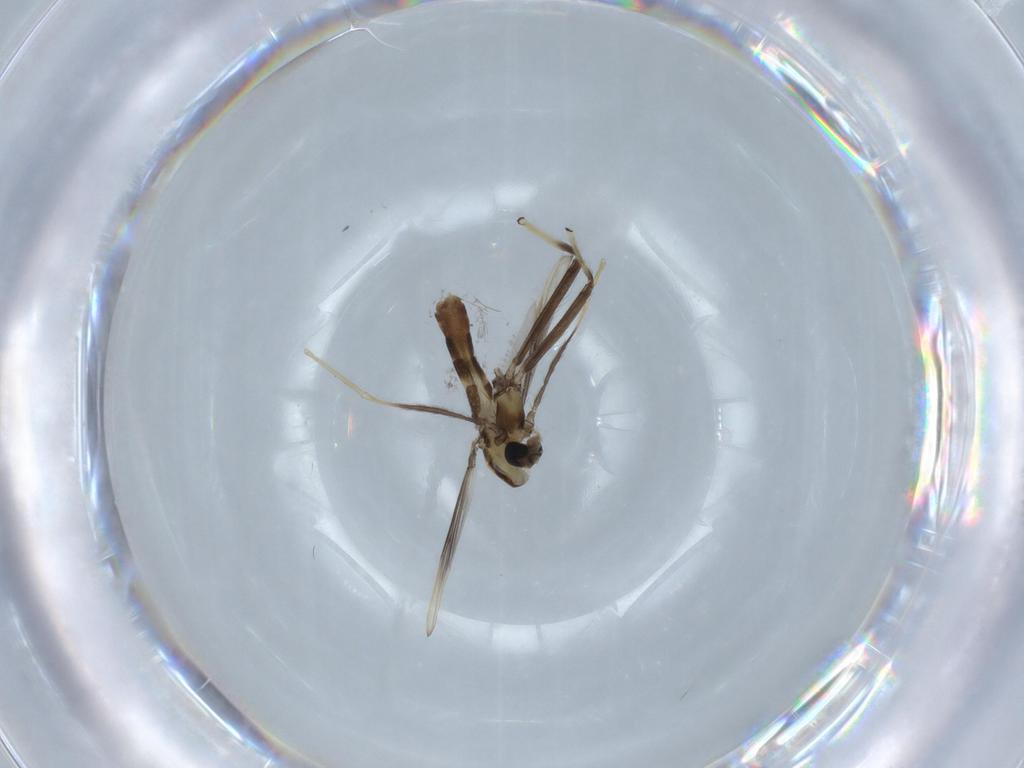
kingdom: Animalia
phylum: Arthropoda
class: Insecta
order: Diptera
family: Chironomidae
